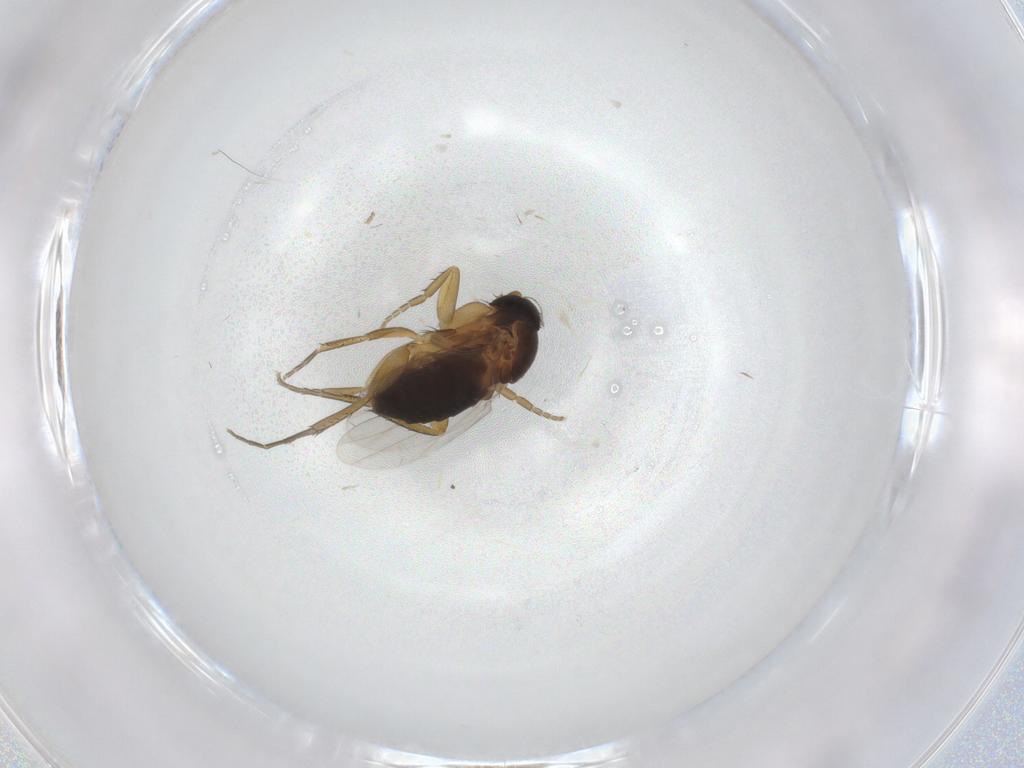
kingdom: Animalia
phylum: Arthropoda
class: Insecta
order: Diptera
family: Phoridae
